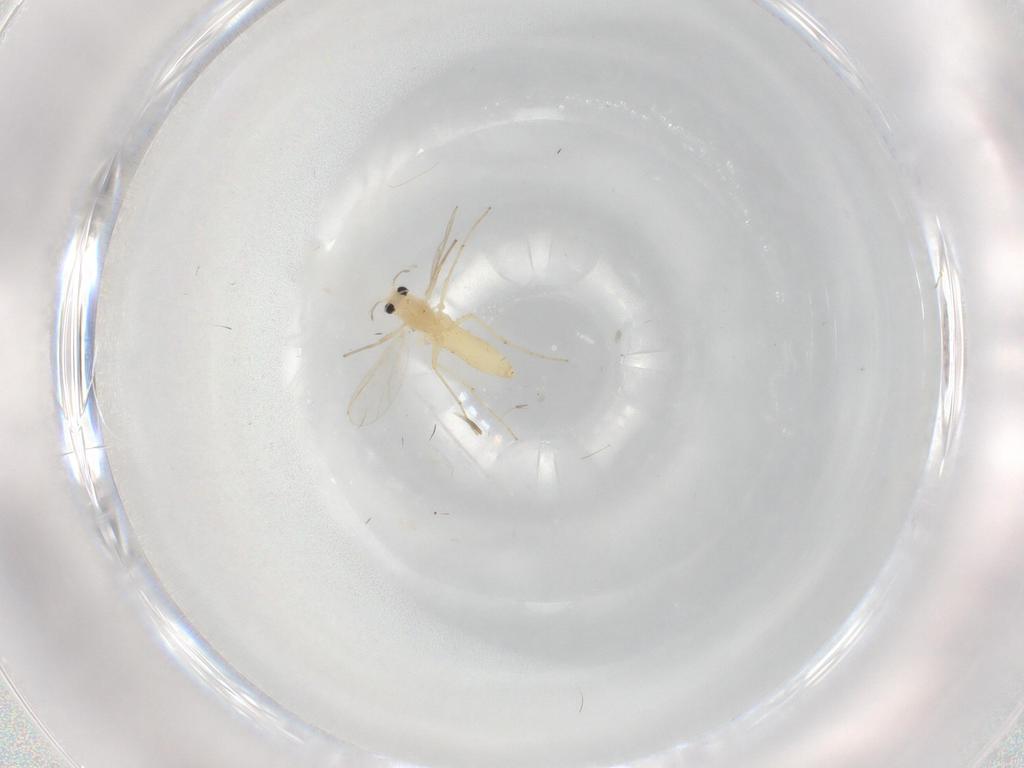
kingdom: Animalia
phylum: Arthropoda
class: Insecta
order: Diptera
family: Chironomidae
